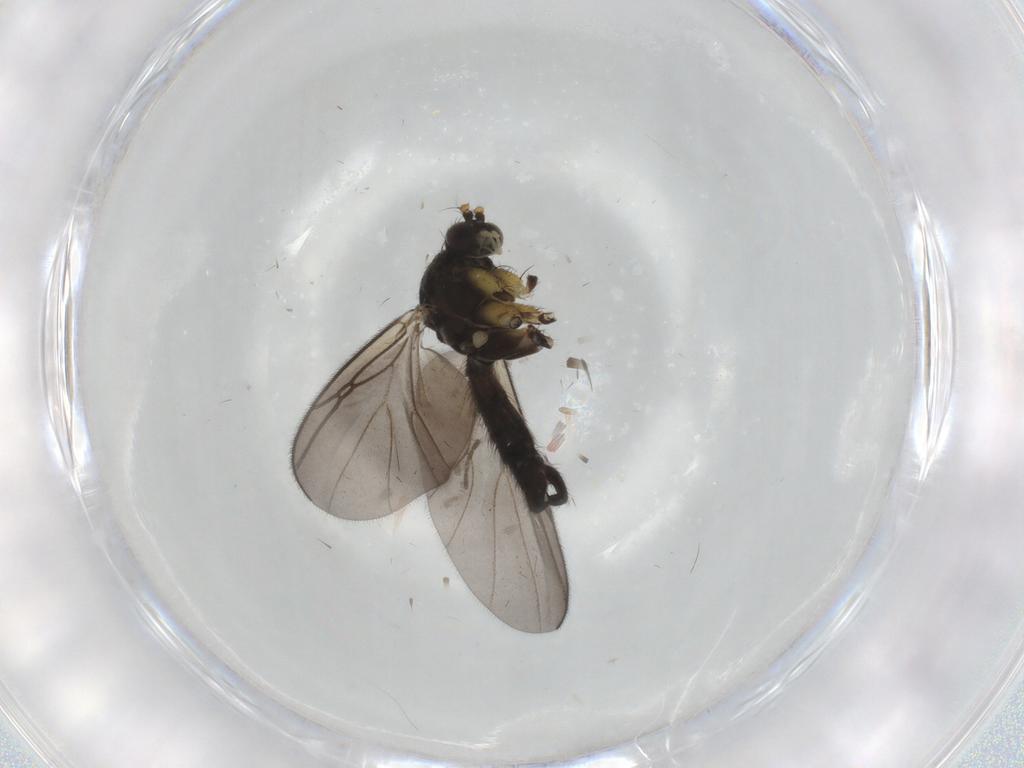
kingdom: Animalia
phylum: Arthropoda
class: Insecta
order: Diptera
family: Mycetophilidae
